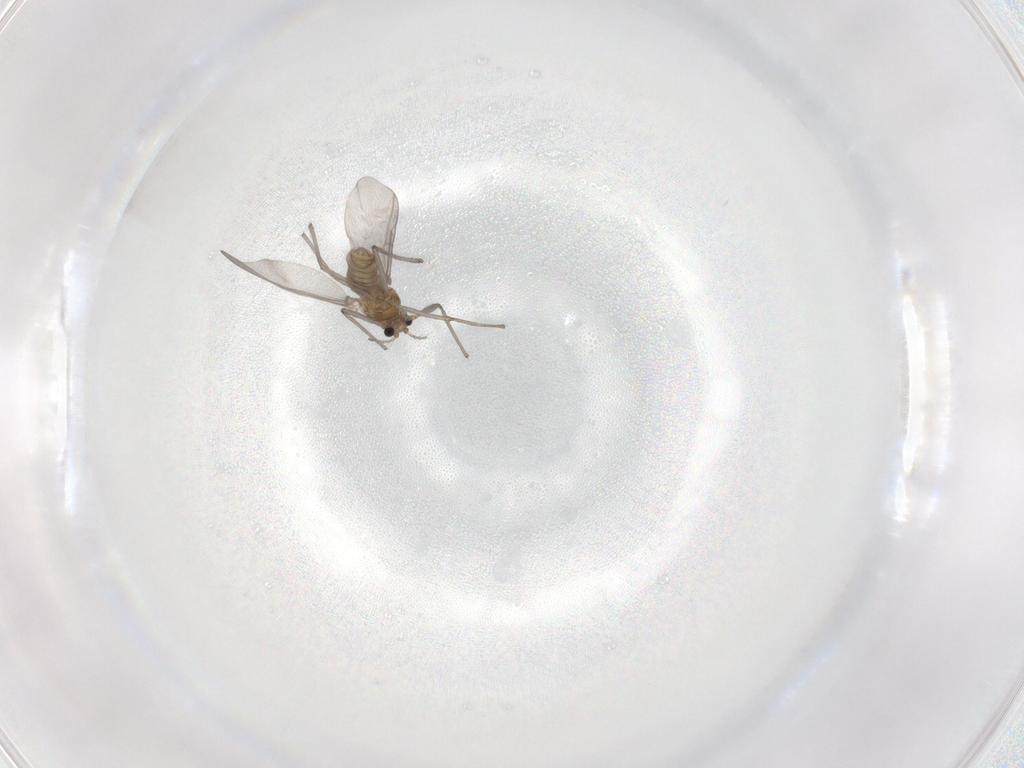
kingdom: Animalia
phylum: Arthropoda
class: Insecta
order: Diptera
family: Chironomidae
